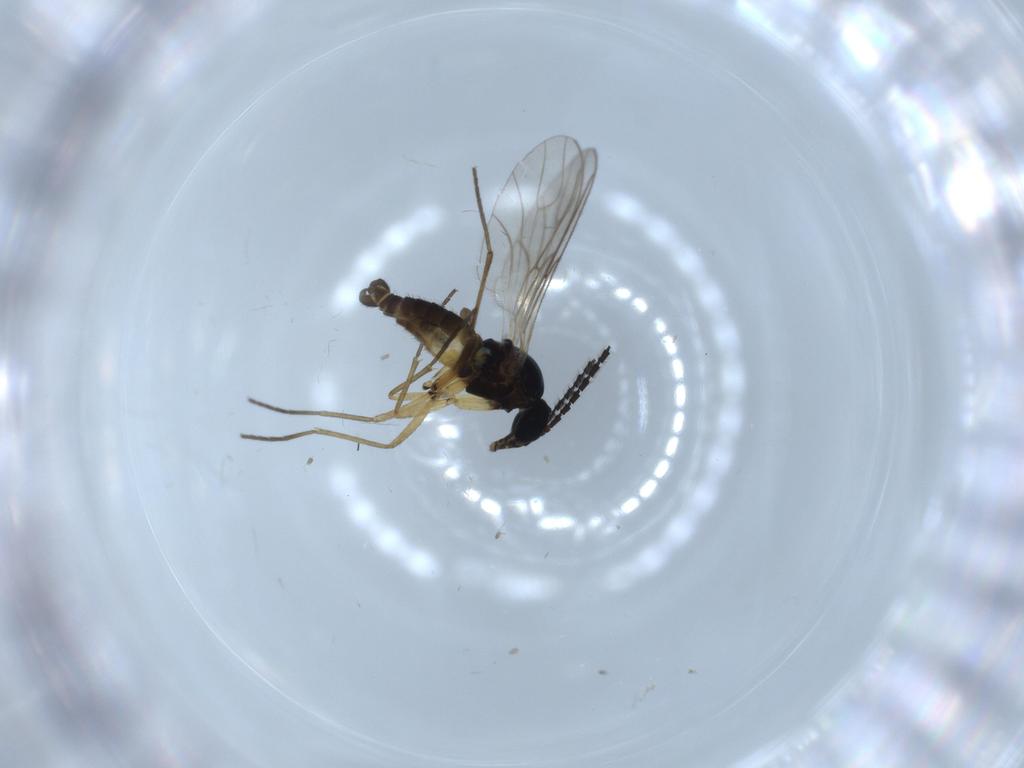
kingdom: Animalia
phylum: Arthropoda
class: Insecta
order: Diptera
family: Sciaridae
